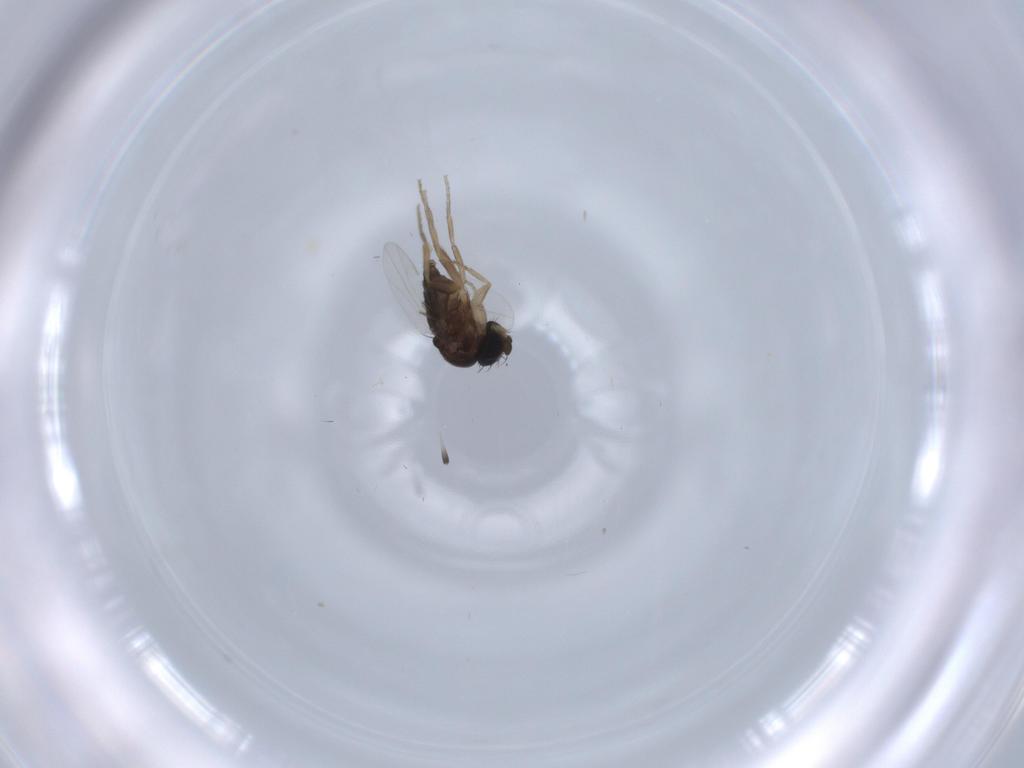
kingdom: Animalia
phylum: Arthropoda
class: Insecta
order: Diptera
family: Phoridae
